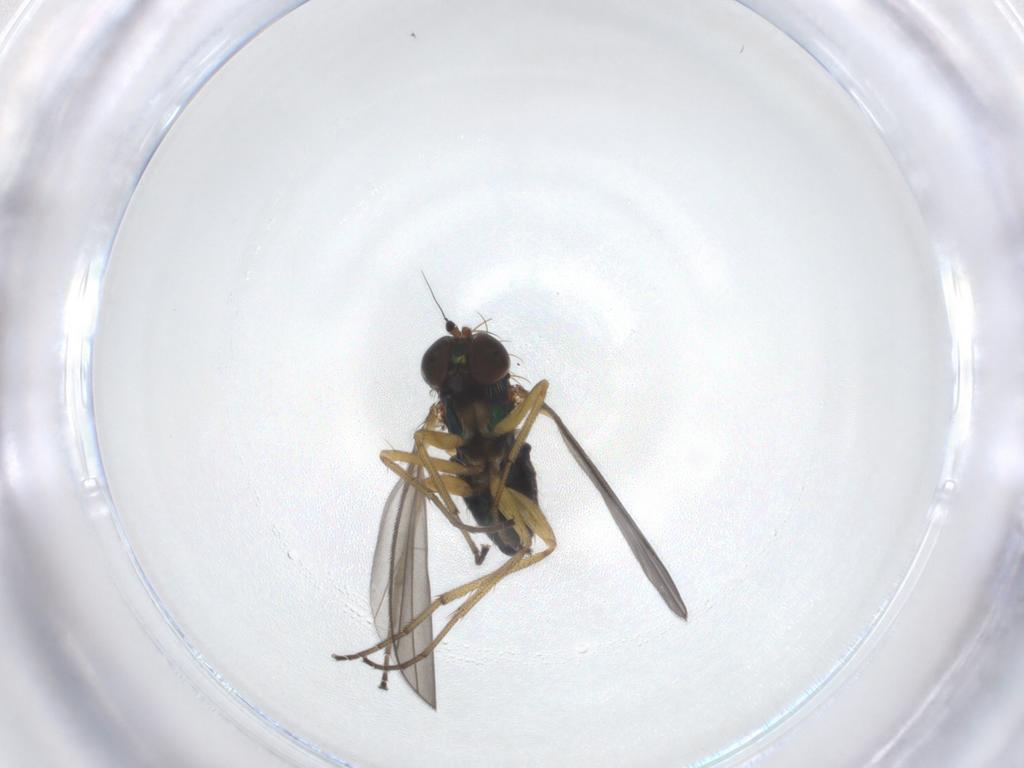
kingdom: Animalia
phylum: Arthropoda
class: Insecta
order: Diptera
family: Dolichopodidae
